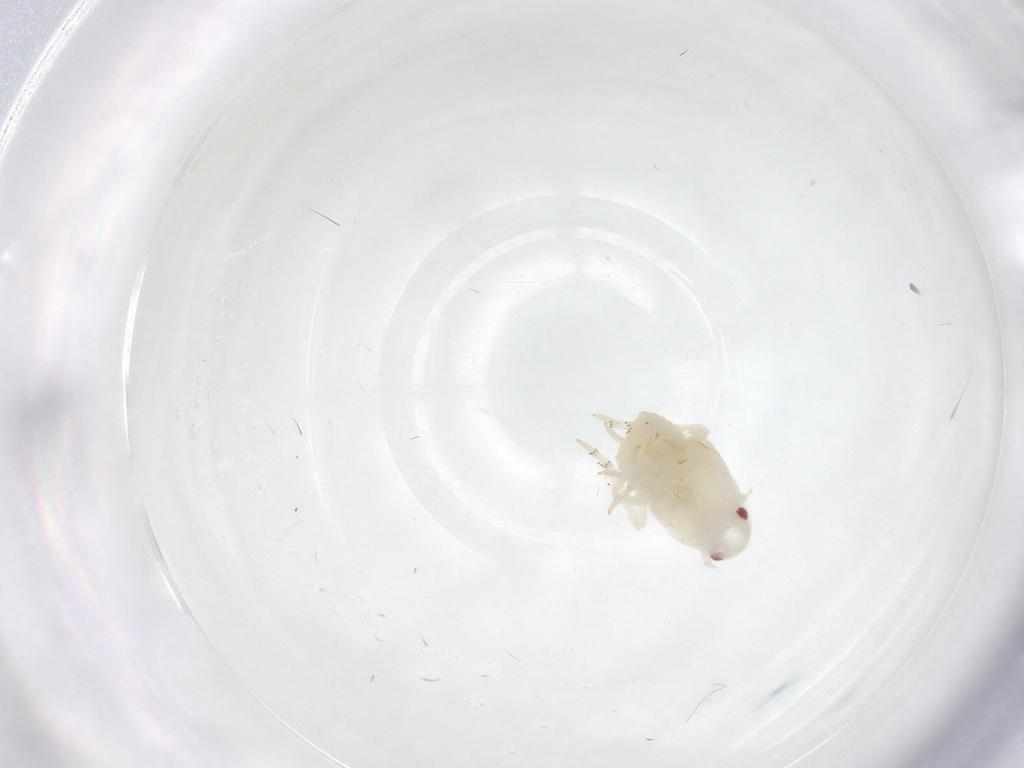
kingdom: Animalia
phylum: Arthropoda
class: Insecta
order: Hemiptera
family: Flatidae
